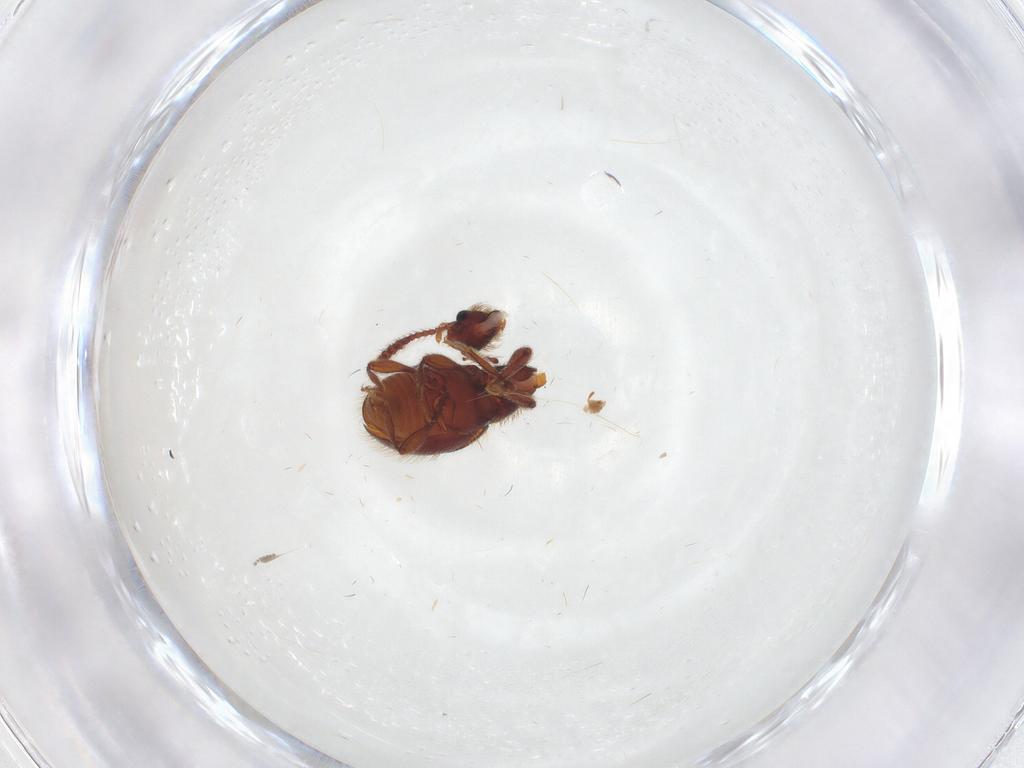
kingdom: Animalia
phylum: Arthropoda
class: Insecta
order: Coleoptera
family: Staphylinidae
